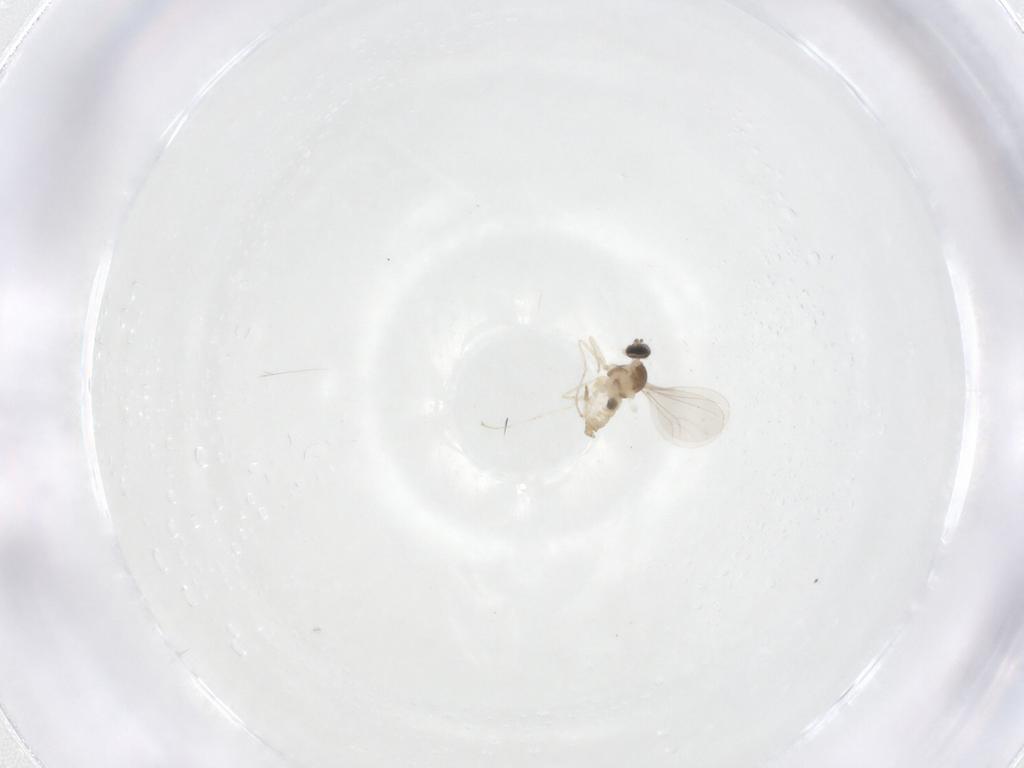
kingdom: Animalia
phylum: Arthropoda
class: Insecta
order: Diptera
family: Cecidomyiidae
